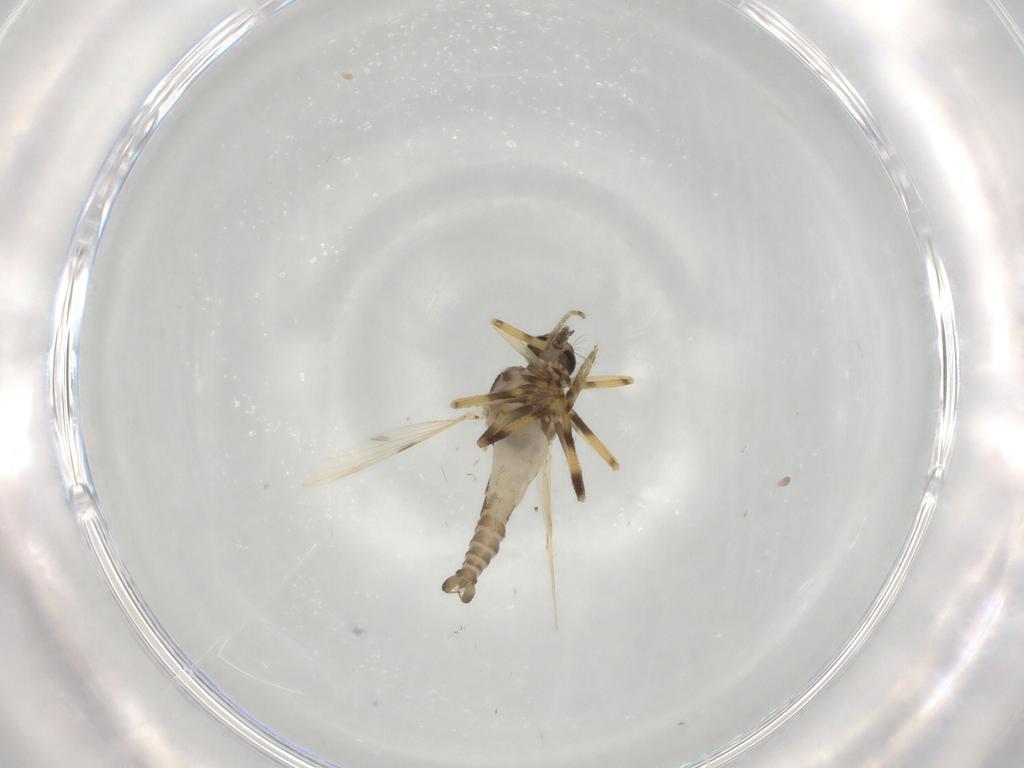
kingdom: Animalia
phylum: Arthropoda
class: Insecta
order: Diptera
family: Ceratopogonidae
